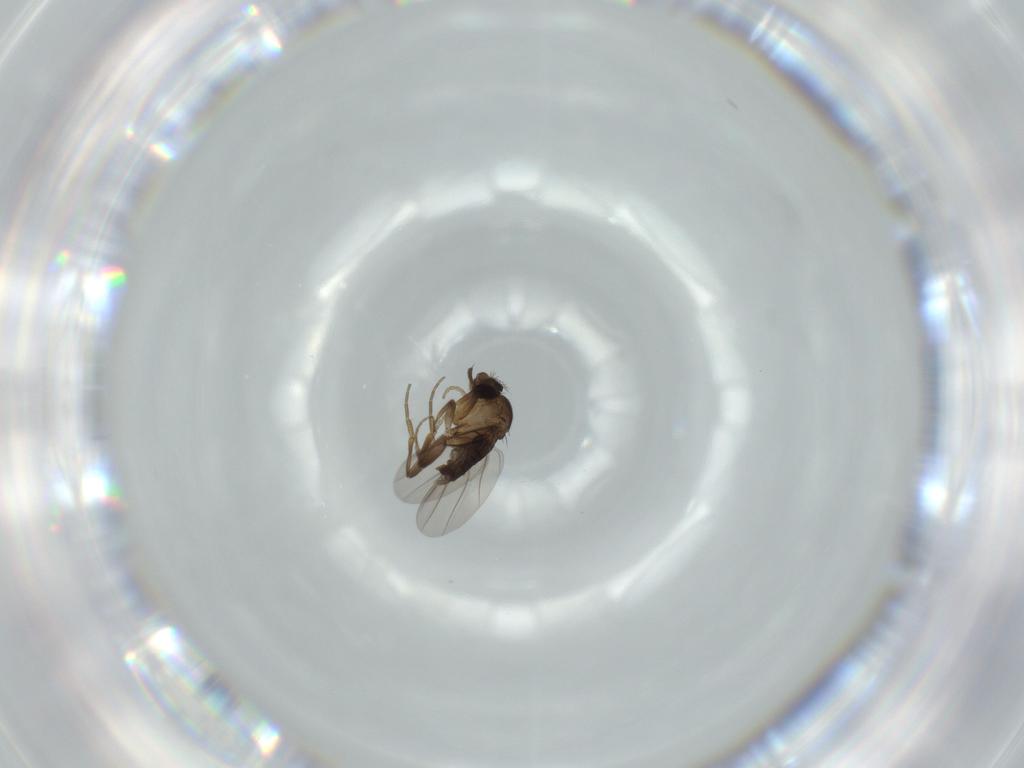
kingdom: Animalia
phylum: Arthropoda
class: Insecta
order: Diptera
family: Phoridae
